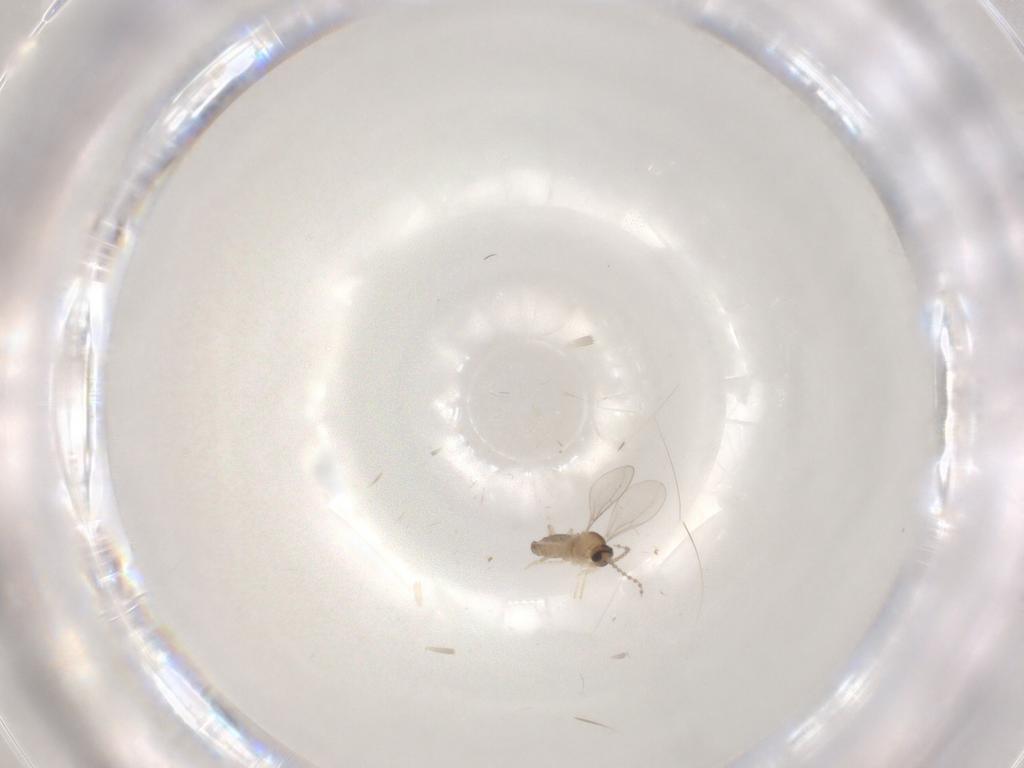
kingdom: Animalia
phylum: Arthropoda
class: Insecta
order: Diptera
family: Cecidomyiidae
